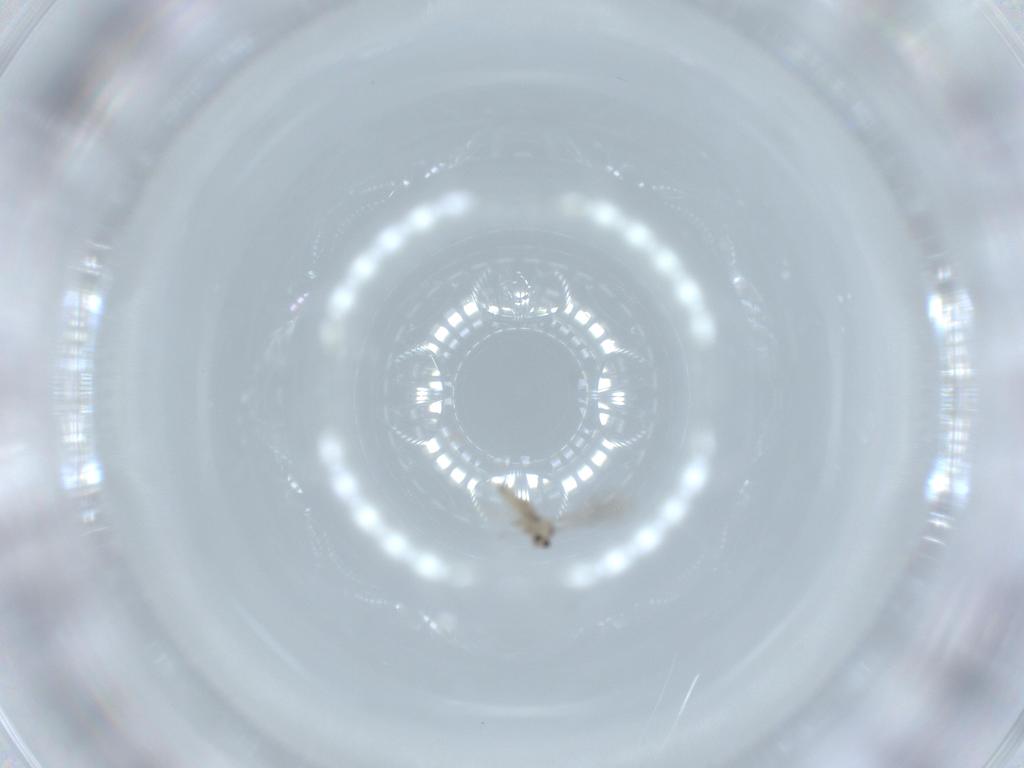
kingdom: Animalia
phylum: Arthropoda
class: Insecta
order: Diptera
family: Cecidomyiidae
